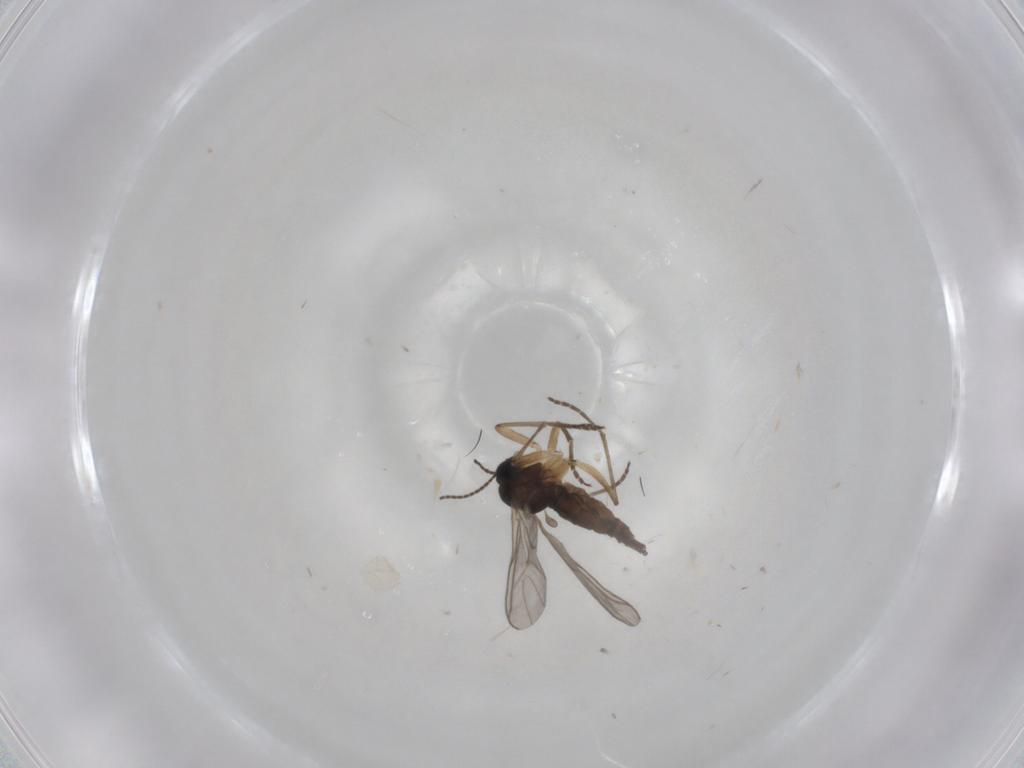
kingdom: Animalia
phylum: Arthropoda
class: Insecta
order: Diptera
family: Sciaridae
